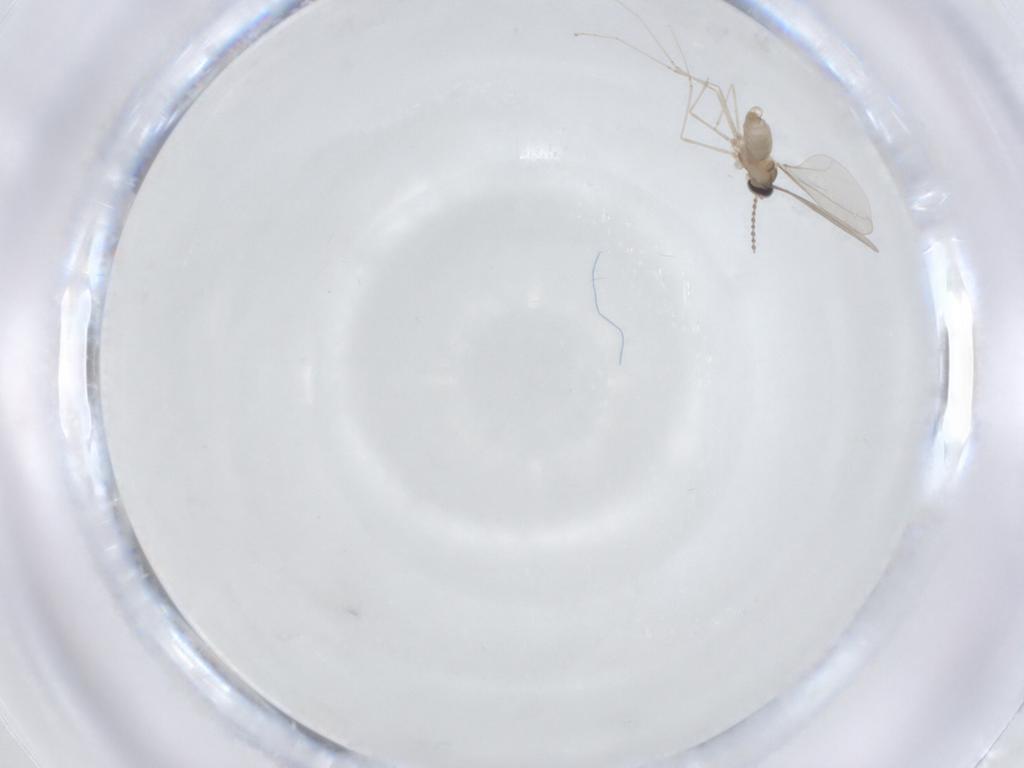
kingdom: Animalia
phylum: Arthropoda
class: Insecta
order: Diptera
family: Cecidomyiidae
